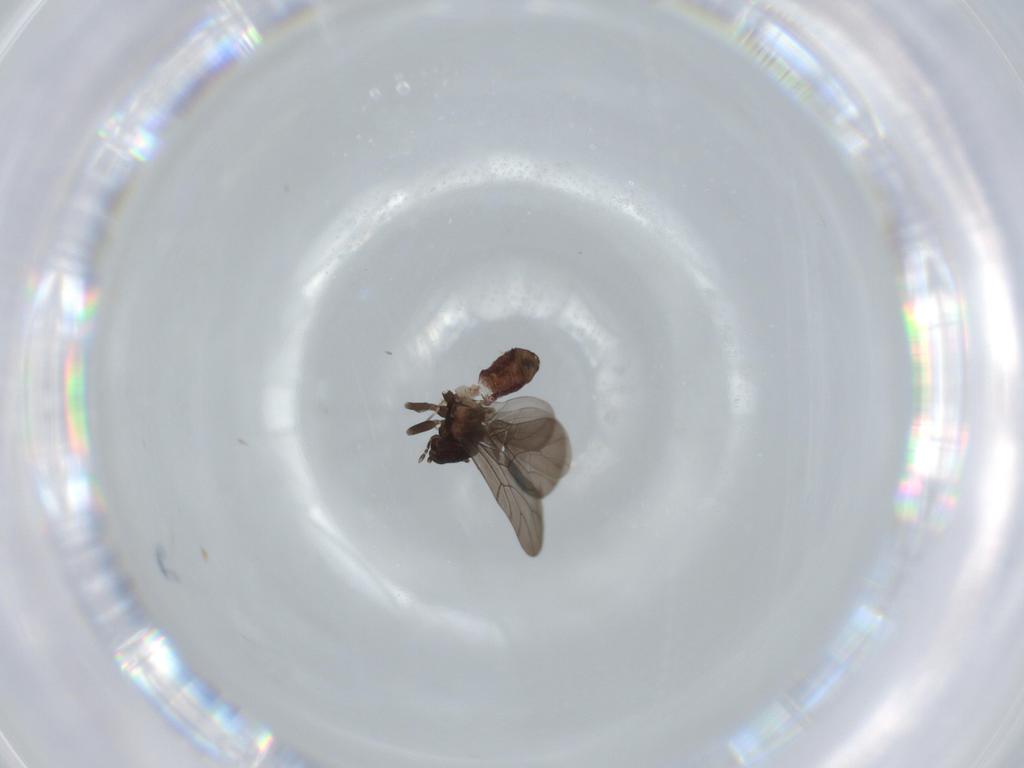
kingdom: Animalia
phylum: Arthropoda
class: Insecta
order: Psocodea
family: Lepidopsocidae
